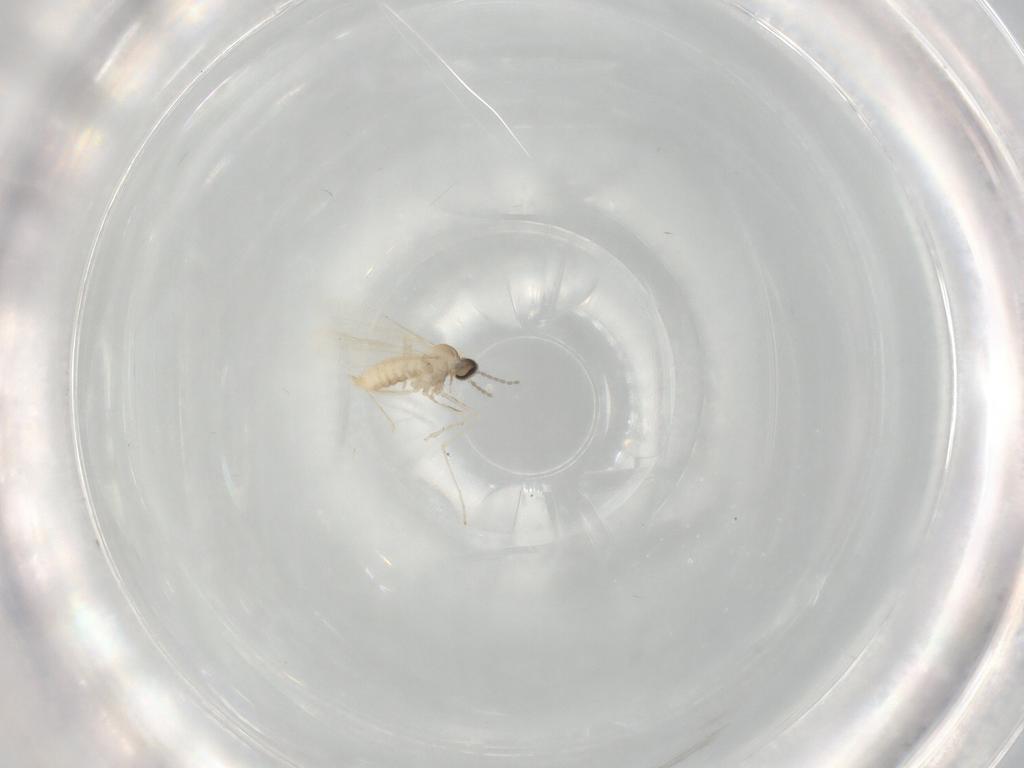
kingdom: Animalia
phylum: Arthropoda
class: Insecta
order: Diptera
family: Cecidomyiidae
